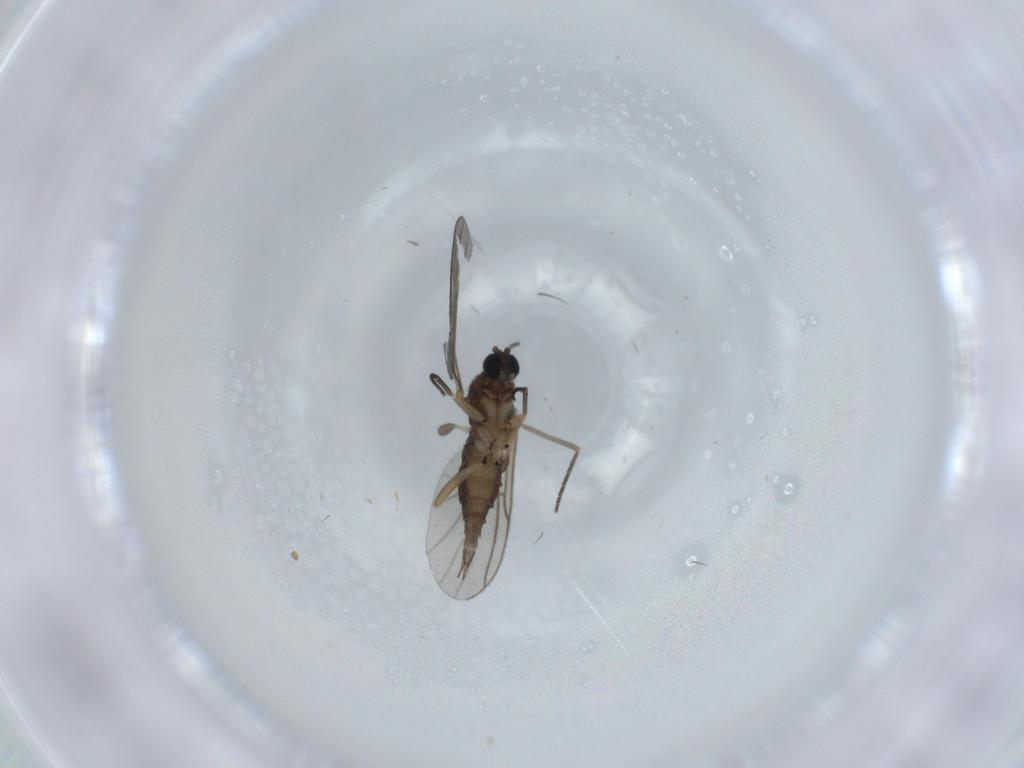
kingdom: Animalia
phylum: Arthropoda
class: Insecta
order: Diptera
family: Sciaridae
